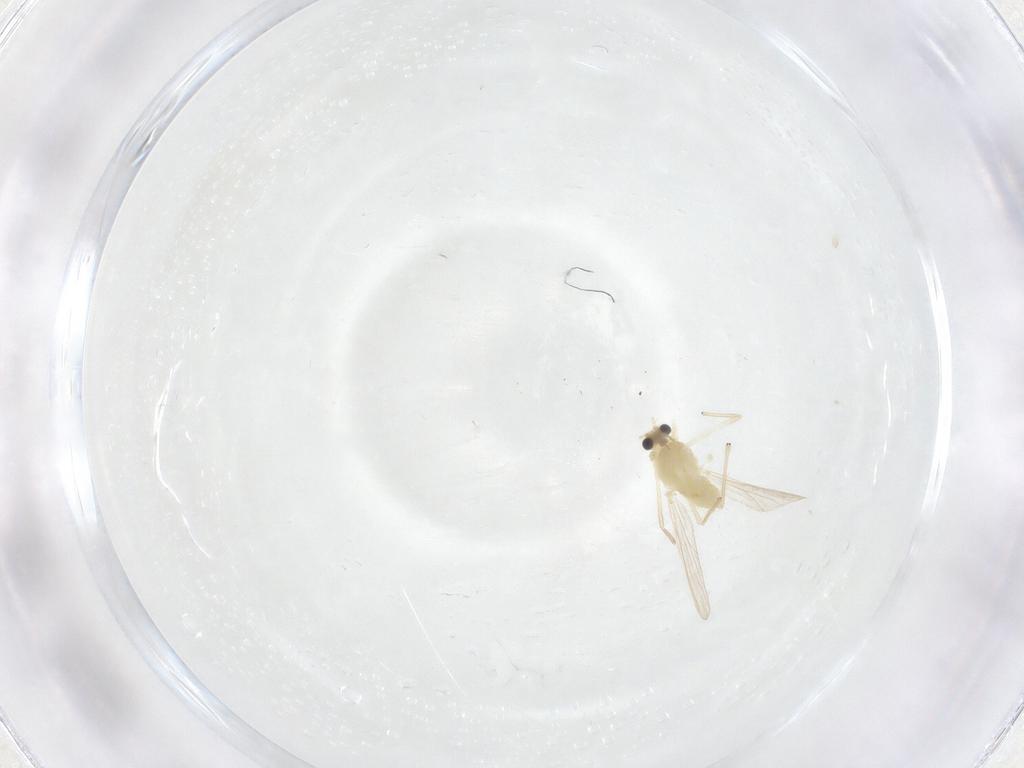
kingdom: Animalia
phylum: Arthropoda
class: Insecta
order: Diptera
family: Chironomidae
